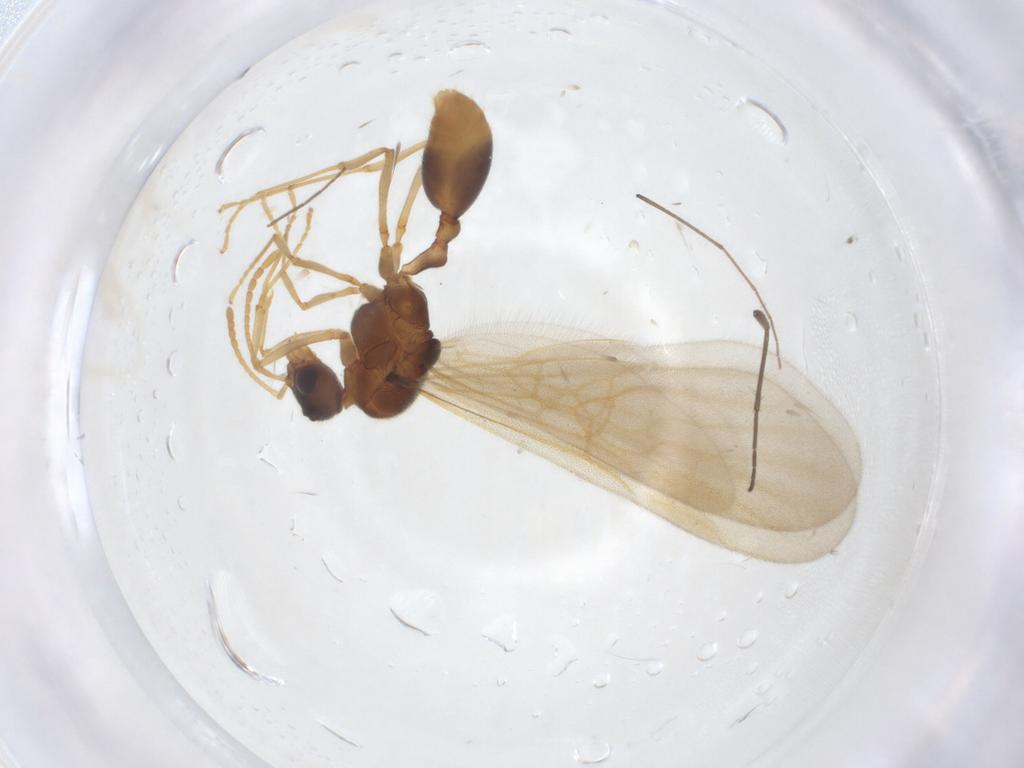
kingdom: Animalia
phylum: Arthropoda
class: Insecta
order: Hymenoptera
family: Formicidae
